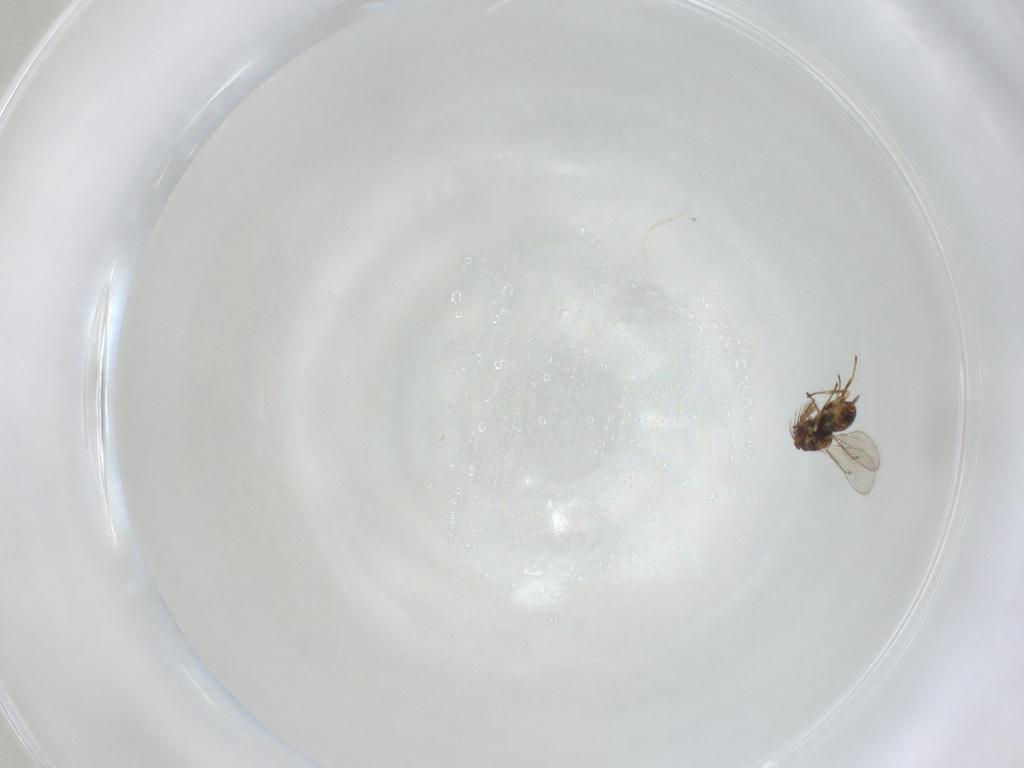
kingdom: Animalia
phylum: Arthropoda
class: Insecta
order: Hymenoptera
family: Eulophidae
